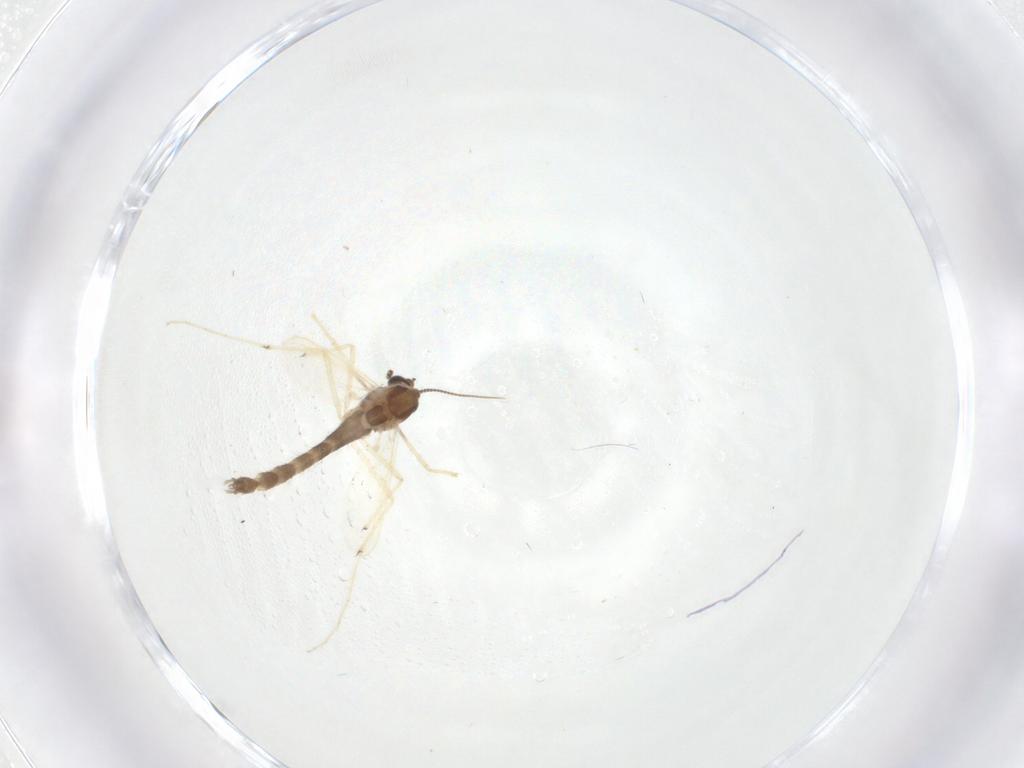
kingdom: Animalia
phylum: Arthropoda
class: Insecta
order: Diptera
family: Chironomidae
